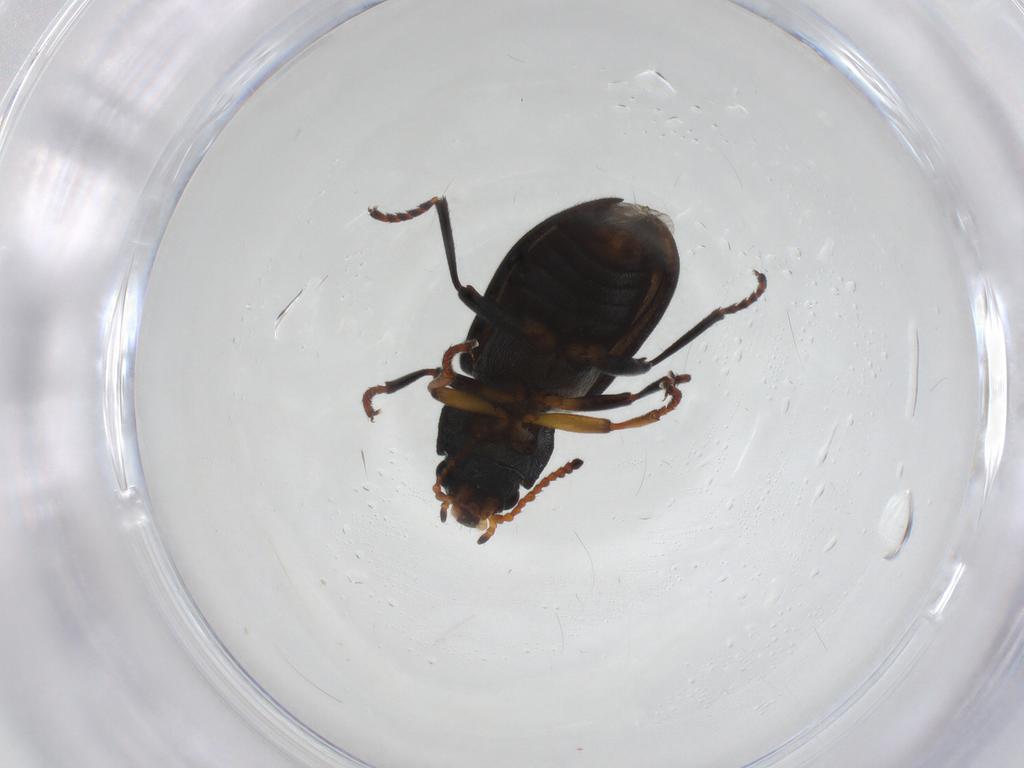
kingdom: Animalia
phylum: Arthropoda
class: Insecta
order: Coleoptera
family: Melyridae
